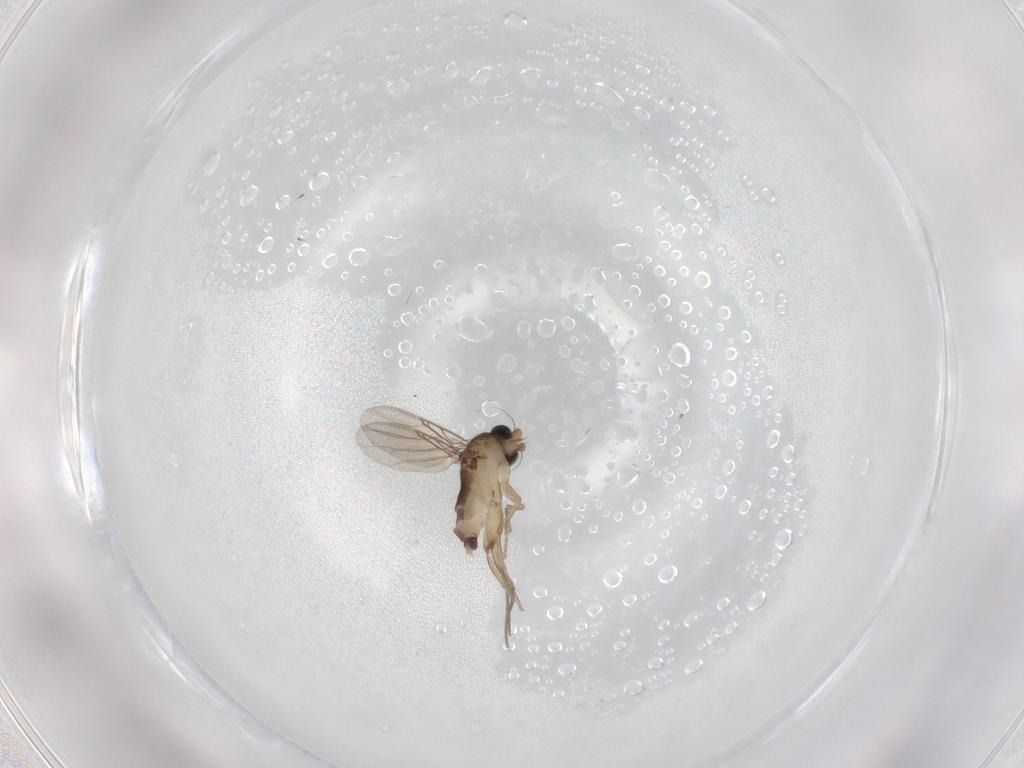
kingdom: Animalia
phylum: Arthropoda
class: Insecta
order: Diptera
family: Phoridae
